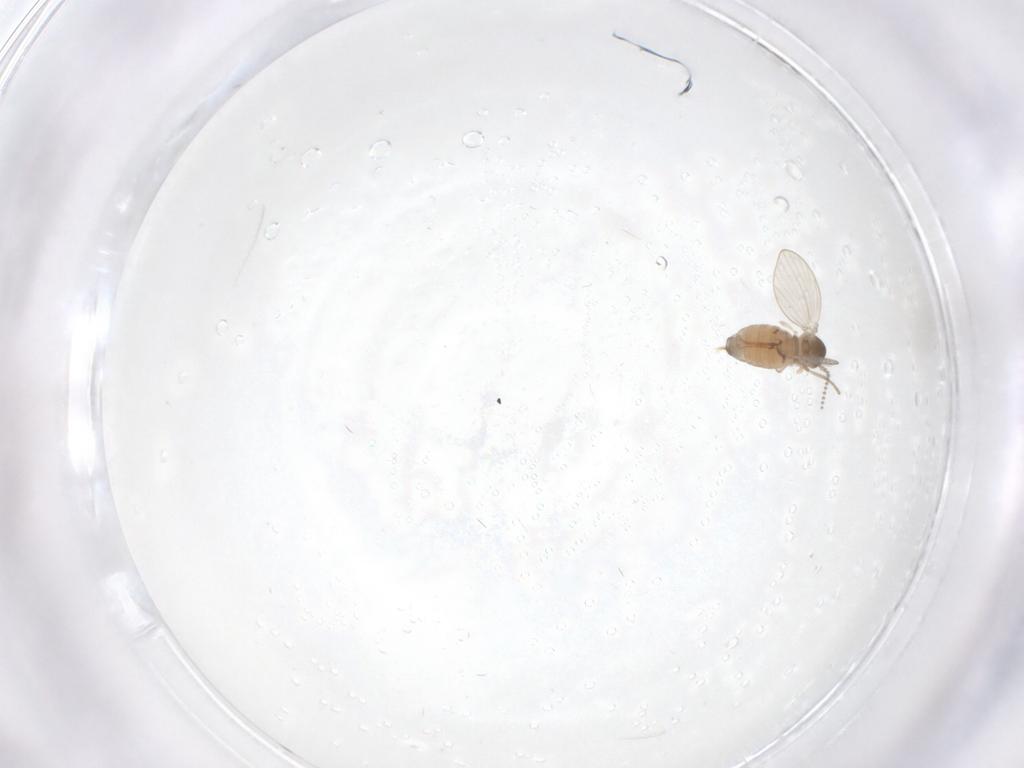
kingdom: Animalia
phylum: Arthropoda
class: Insecta
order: Diptera
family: Psychodidae
